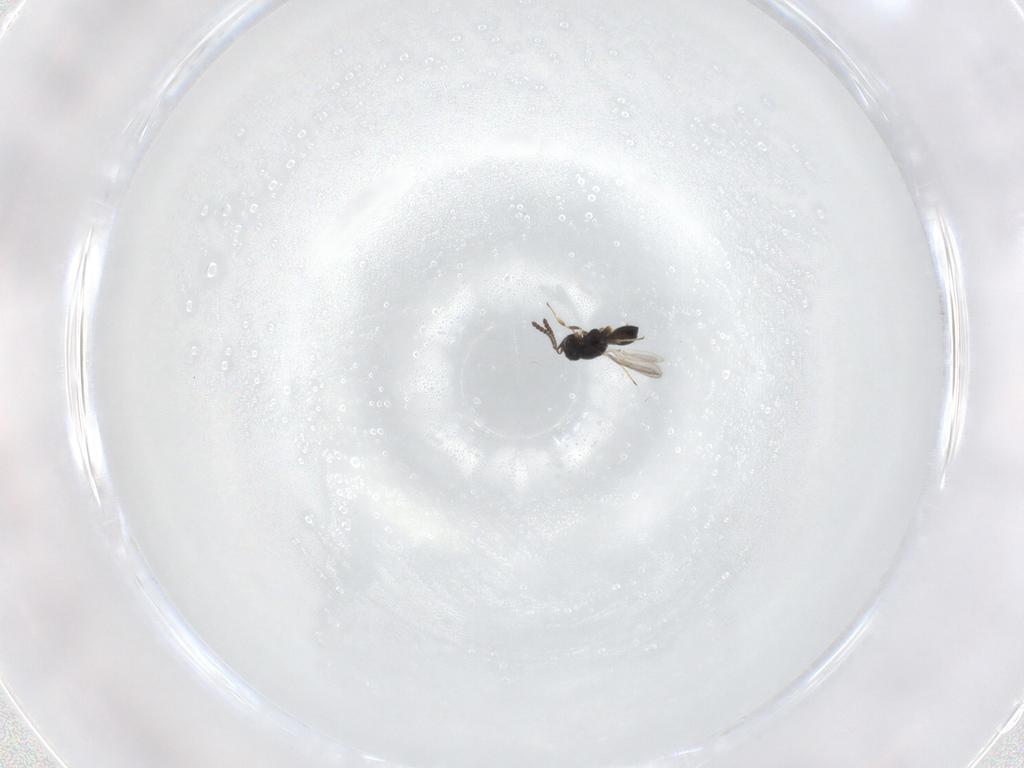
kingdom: Animalia
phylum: Arthropoda
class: Insecta
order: Hymenoptera
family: Scelionidae
